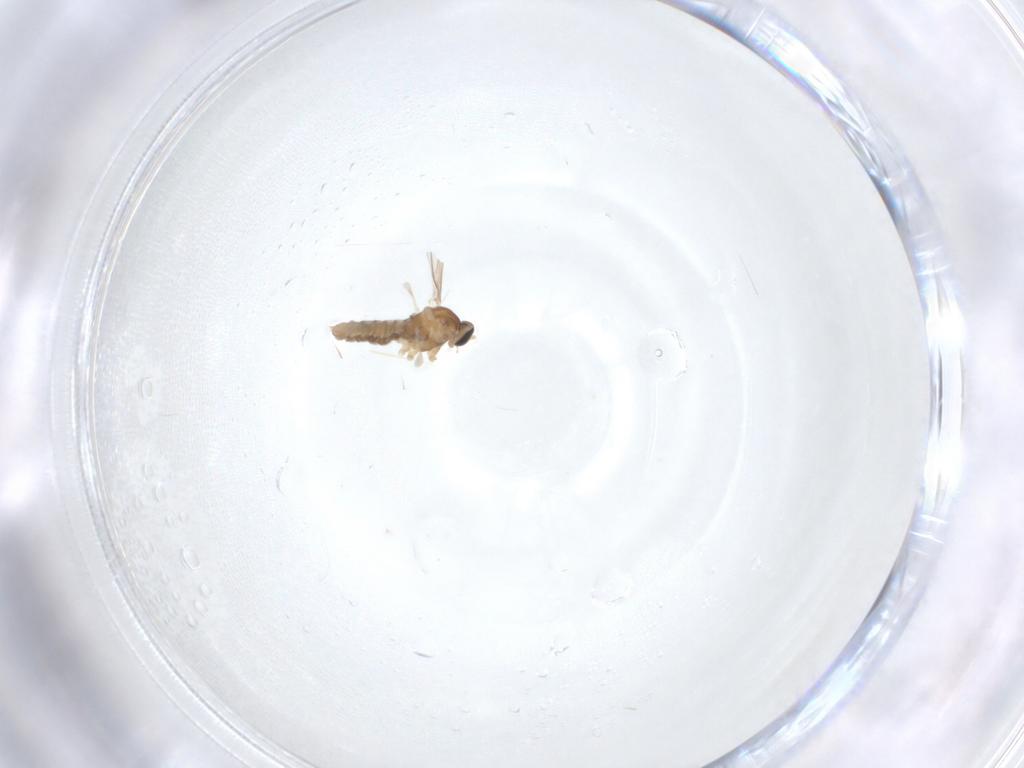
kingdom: Animalia
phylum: Arthropoda
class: Insecta
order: Diptera
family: Cecidomyiidae
